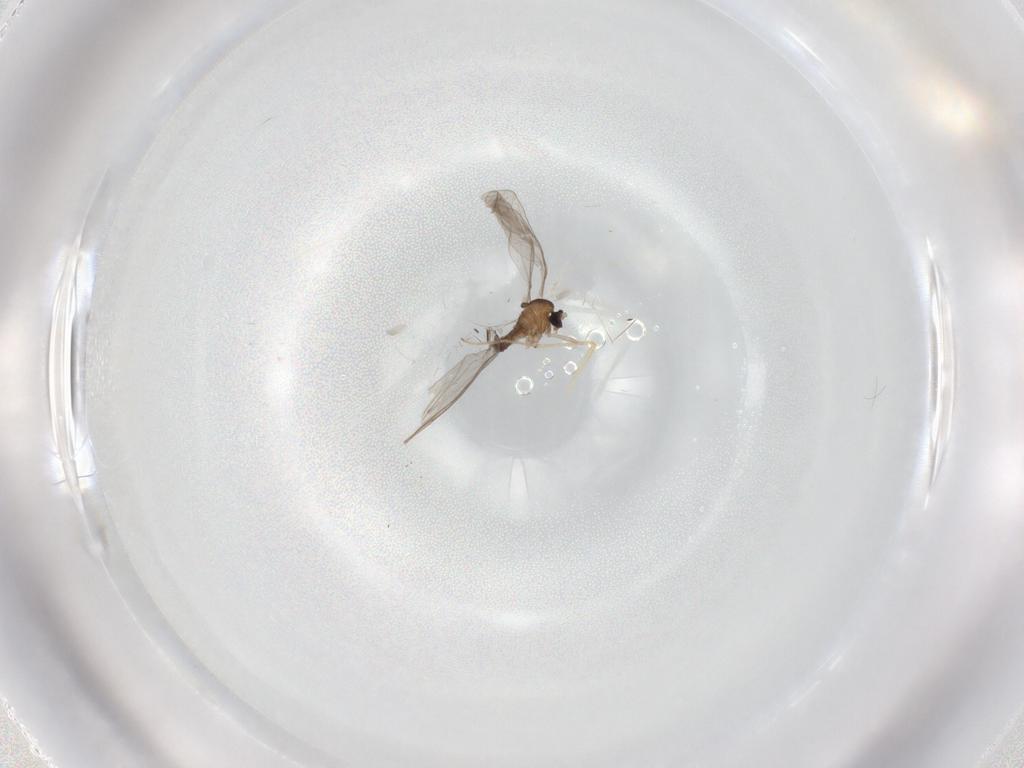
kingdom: Animalia
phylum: Arthropoda
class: Insecta
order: Diptera
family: Cecidomyiidae
